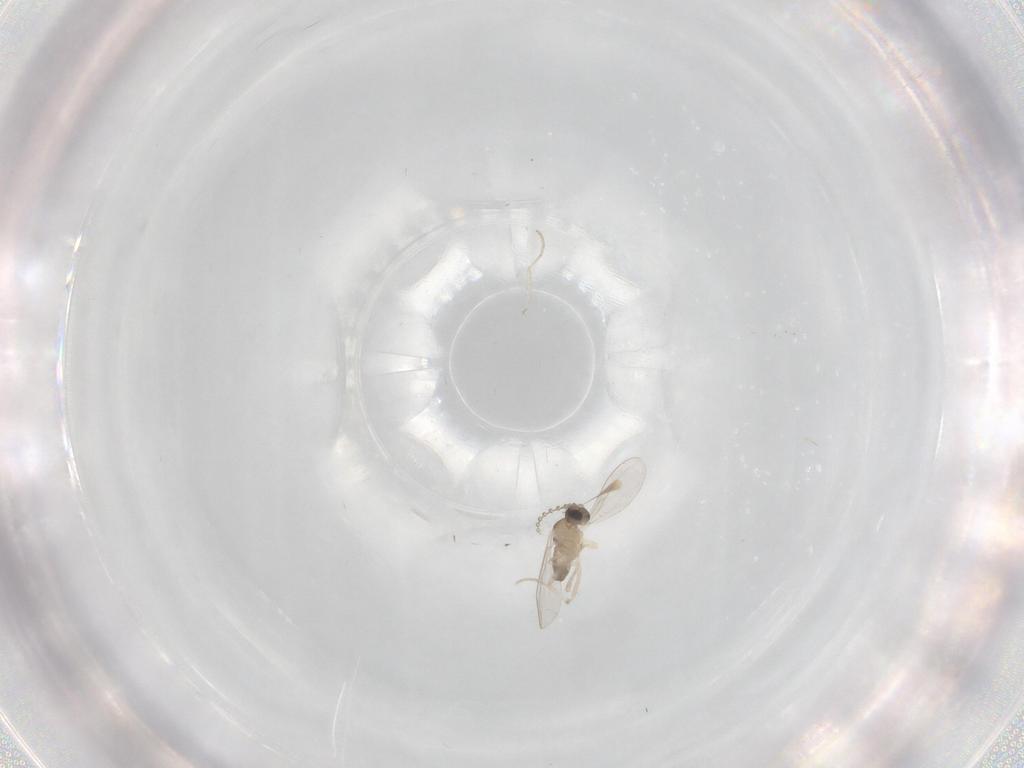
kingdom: Animalia
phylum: Arthropoda
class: Insecta
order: Diptera
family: Cecidomyiidae
